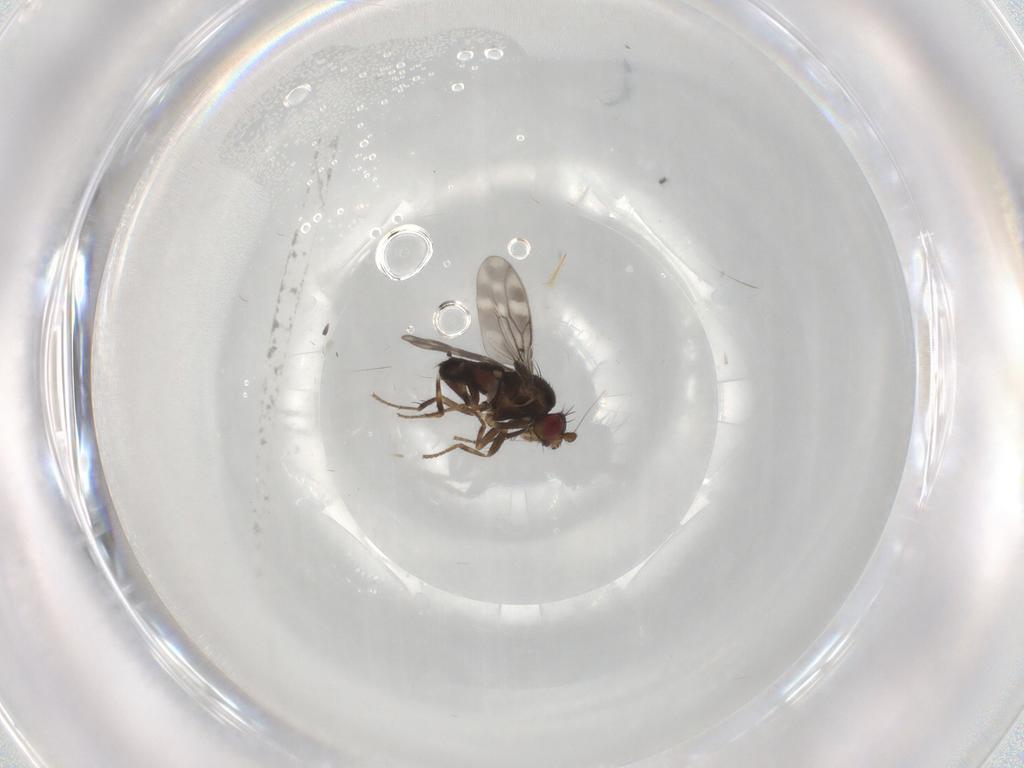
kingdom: Animalia
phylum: Arthropoda
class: Insecta
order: Diptera
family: Sphaeroceridae
